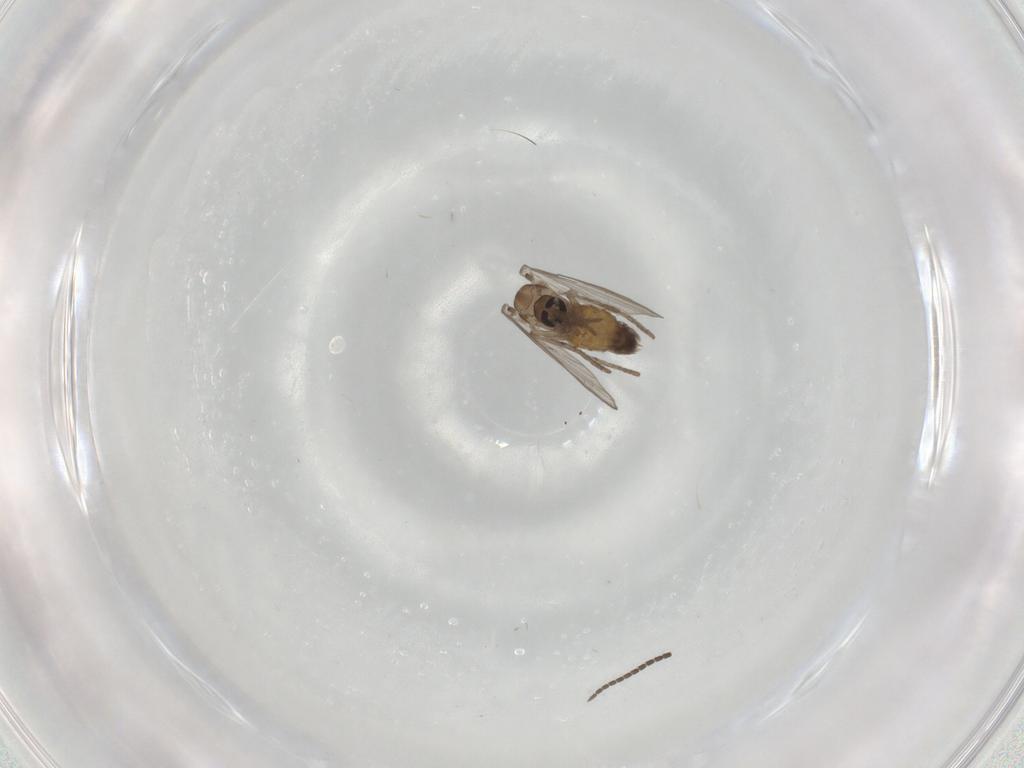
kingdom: Animalia
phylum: Arthropoda
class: Insecta
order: Diptera
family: Psychodidae
